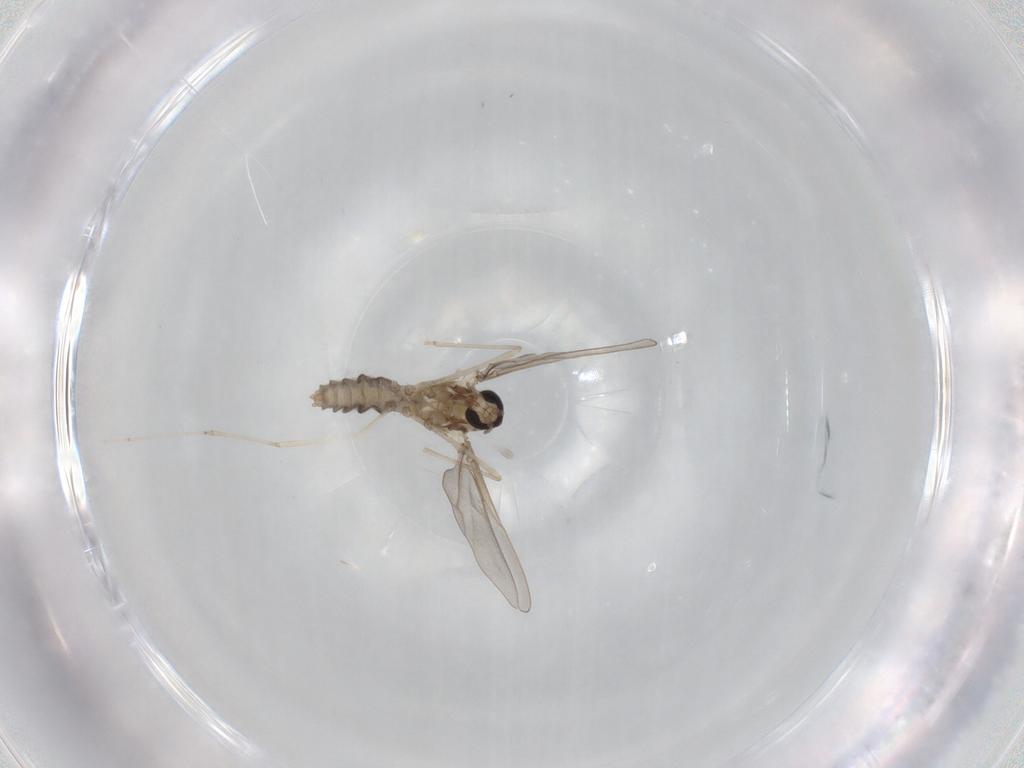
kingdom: Animalia
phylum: Arthropoda
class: Insecta
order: Diptera
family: Cecidomyiidae
